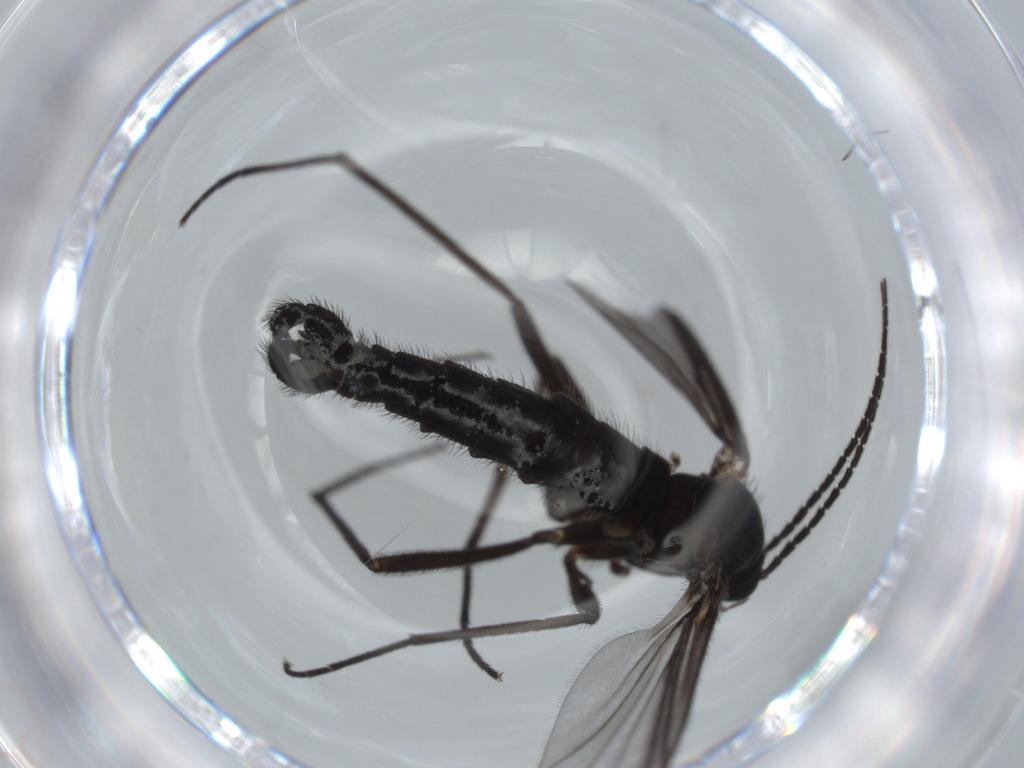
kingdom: Animalia
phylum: Arthropoda
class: Insecta
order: Diptera
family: Sciaridae
